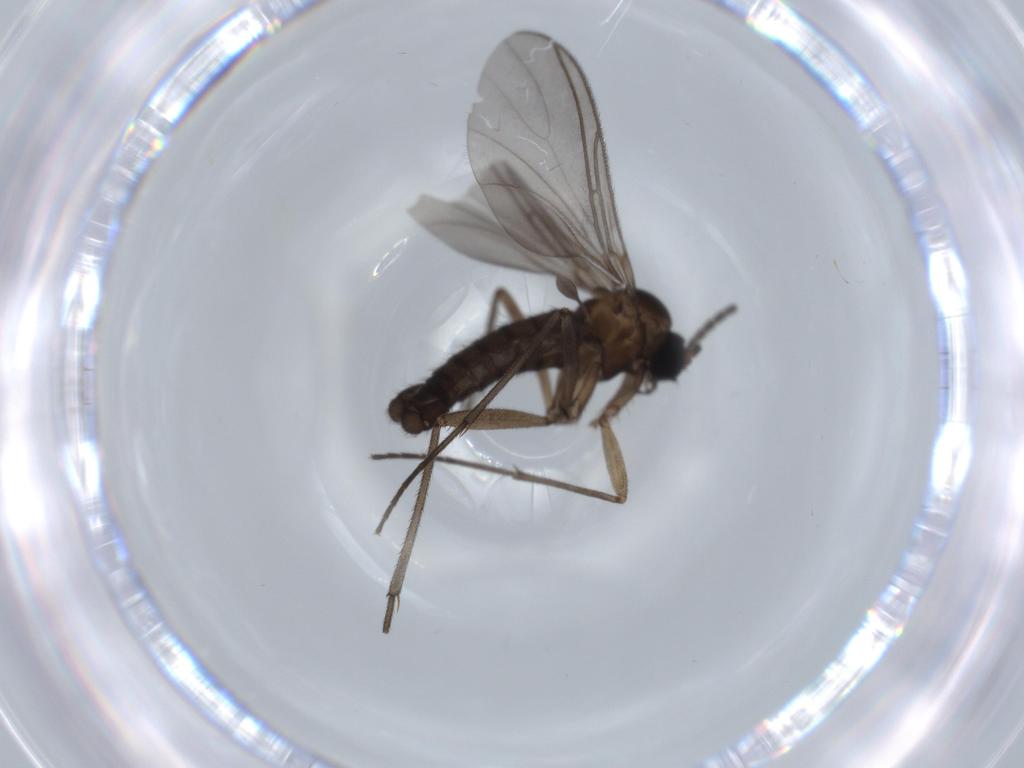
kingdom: Animalia
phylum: Arthropoda
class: Insecta
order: Diptera
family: Sciaridae
